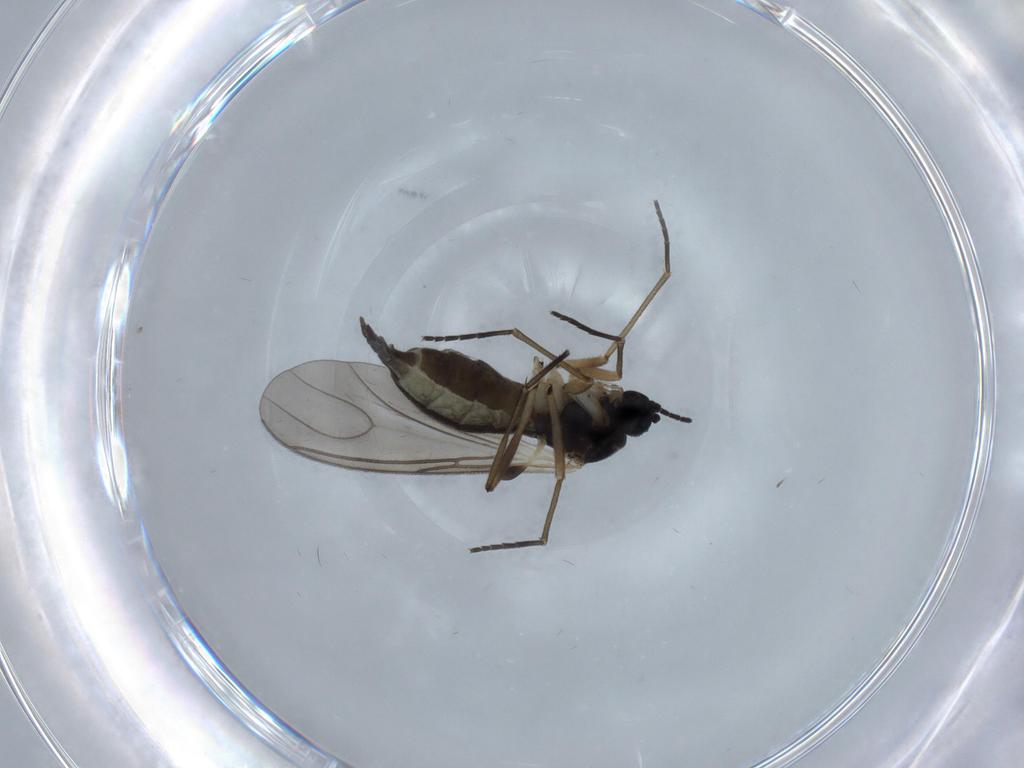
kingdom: Animalia
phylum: Arthropoda
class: Insecta
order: Diptera
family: Sciaridae
